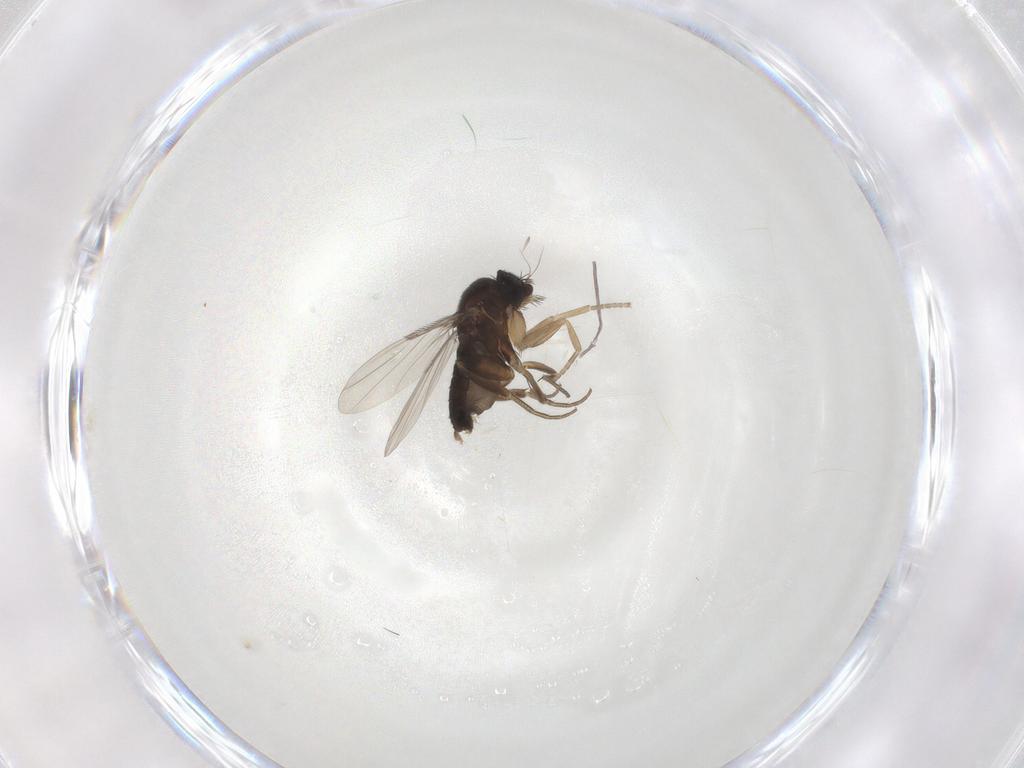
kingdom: Animalia
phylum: Arthropoda
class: Insecta
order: Diptera
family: Phoridae
